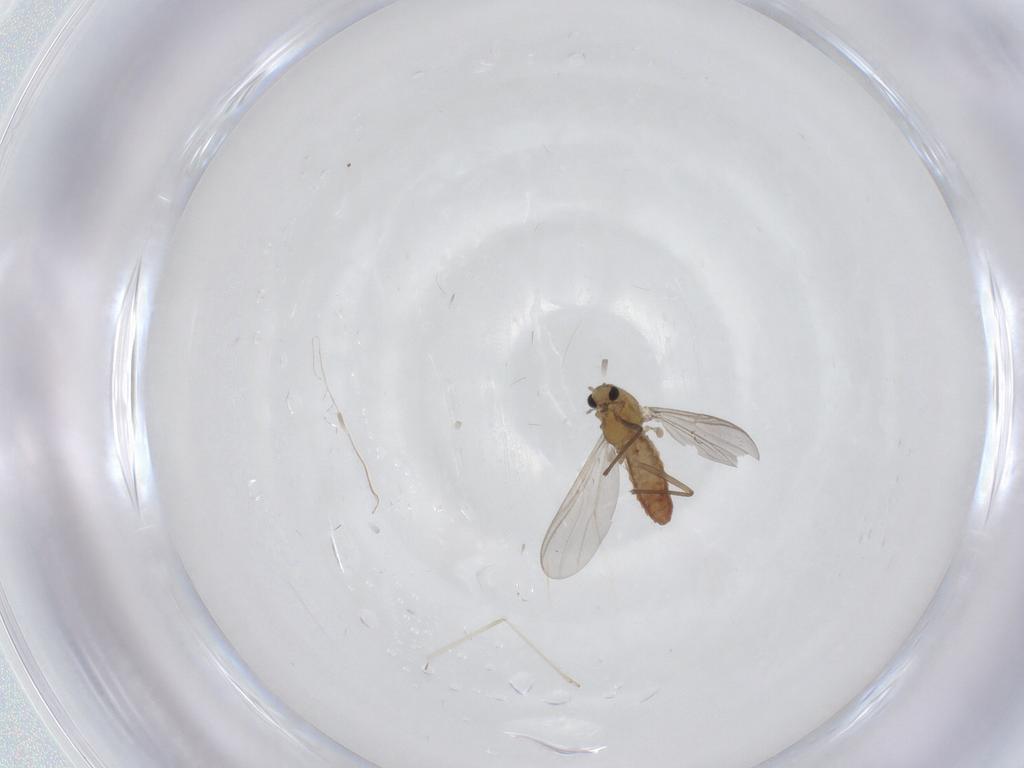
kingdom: Animalia
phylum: Arthropoda
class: Insecta
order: Diptera
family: Chironomidae
